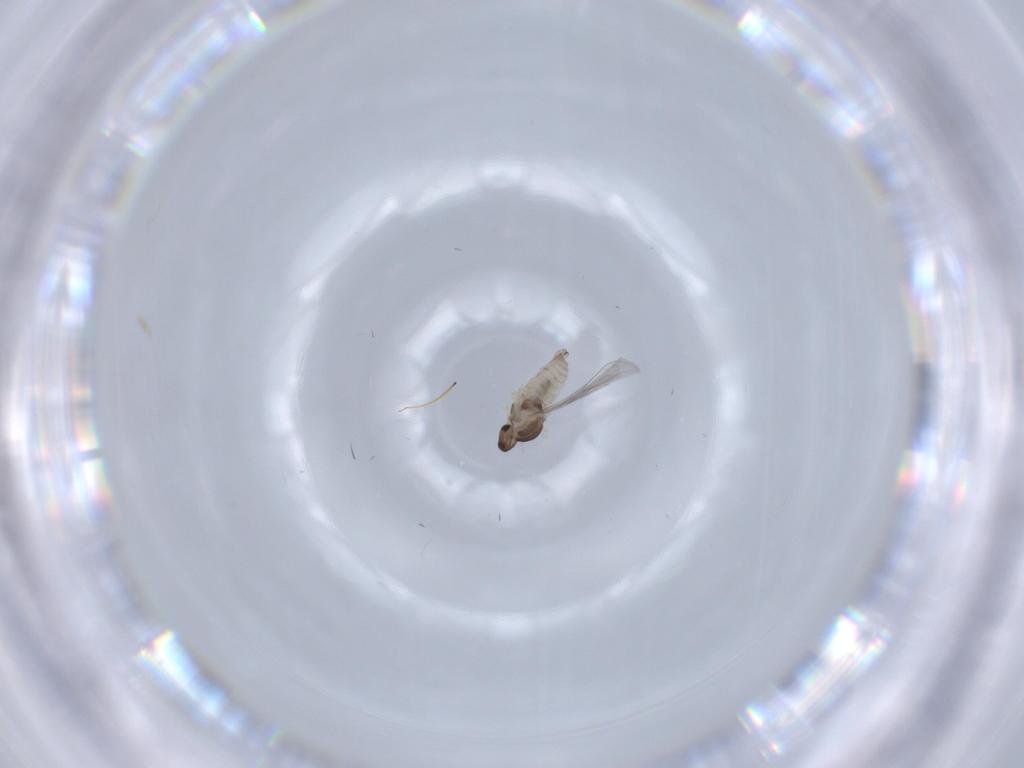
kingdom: Animalia
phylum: Arthropoda
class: Insecta
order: Diptera
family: Cecidomyiidae
